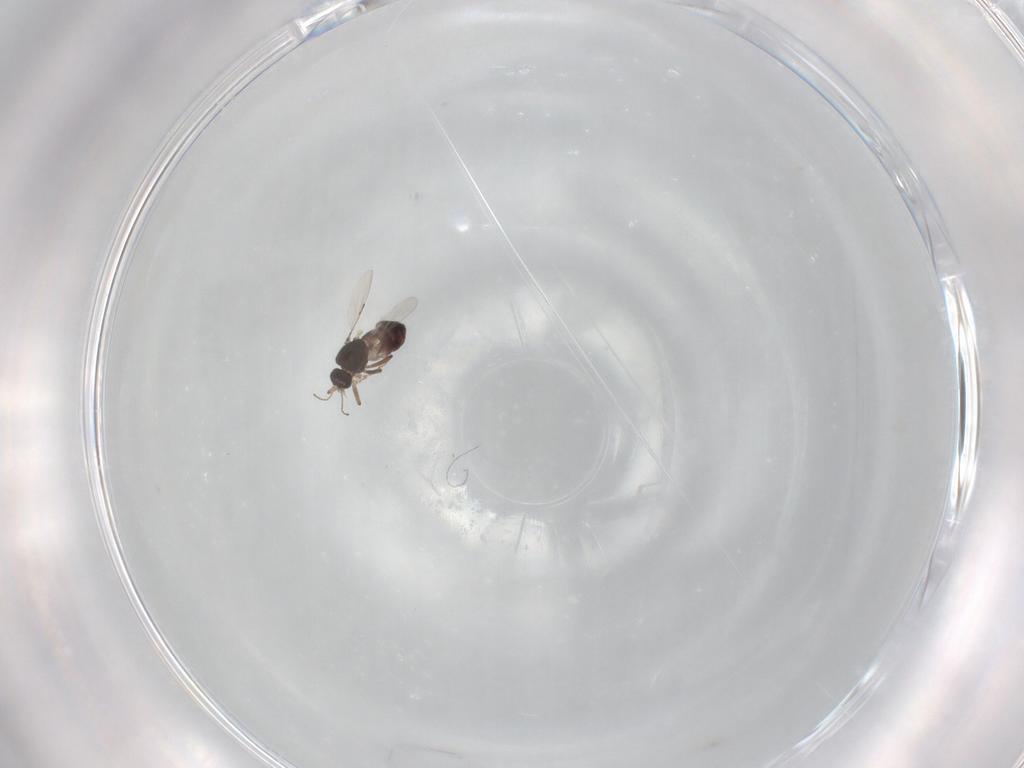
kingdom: Animalia
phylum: Arthropoda
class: Insecta
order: Diptera
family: Ceratopogonidae
